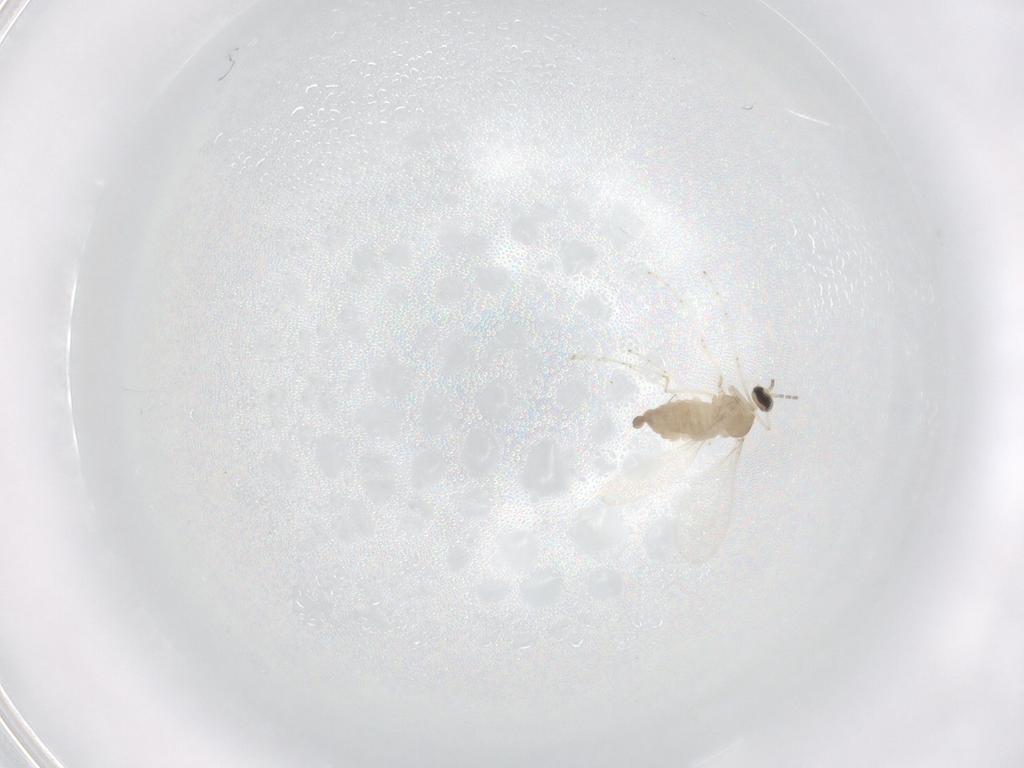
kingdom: Animalia
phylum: Arthropoda
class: Insecta
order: Diptera
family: Cecidomyiidae
